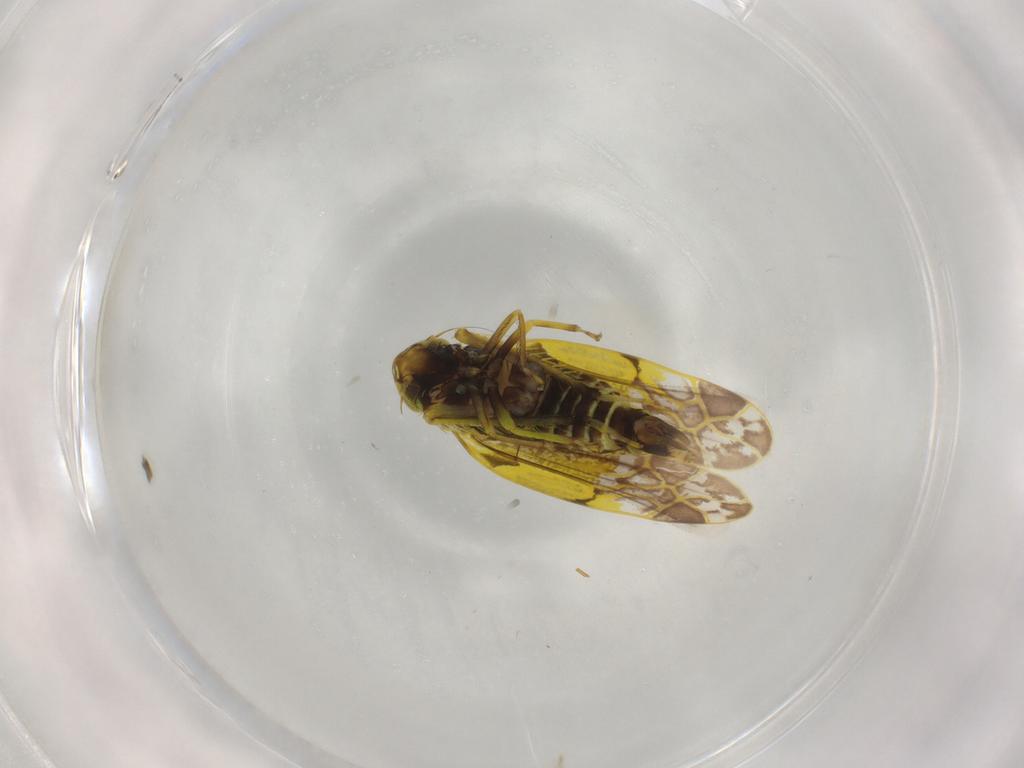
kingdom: Animalia
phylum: Arthropoda
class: Insecta
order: Hemiptera
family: Cicadellidae
